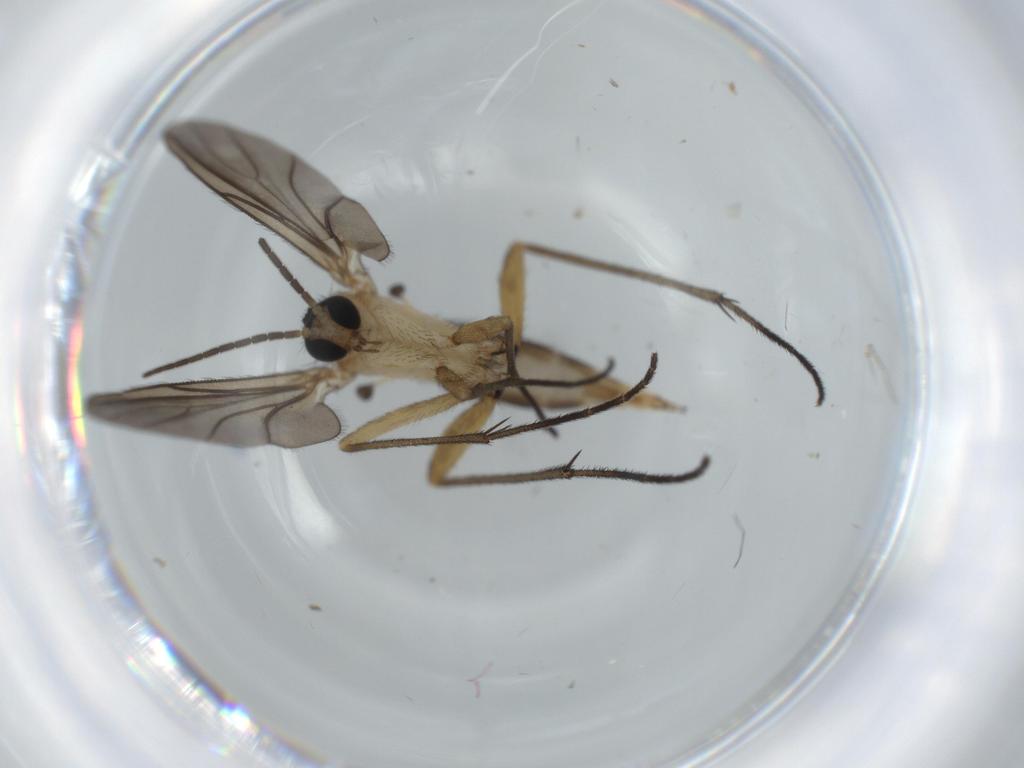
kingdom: Animalia
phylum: Arthropoda
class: Insecta
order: Diptera
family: Sciaridae
